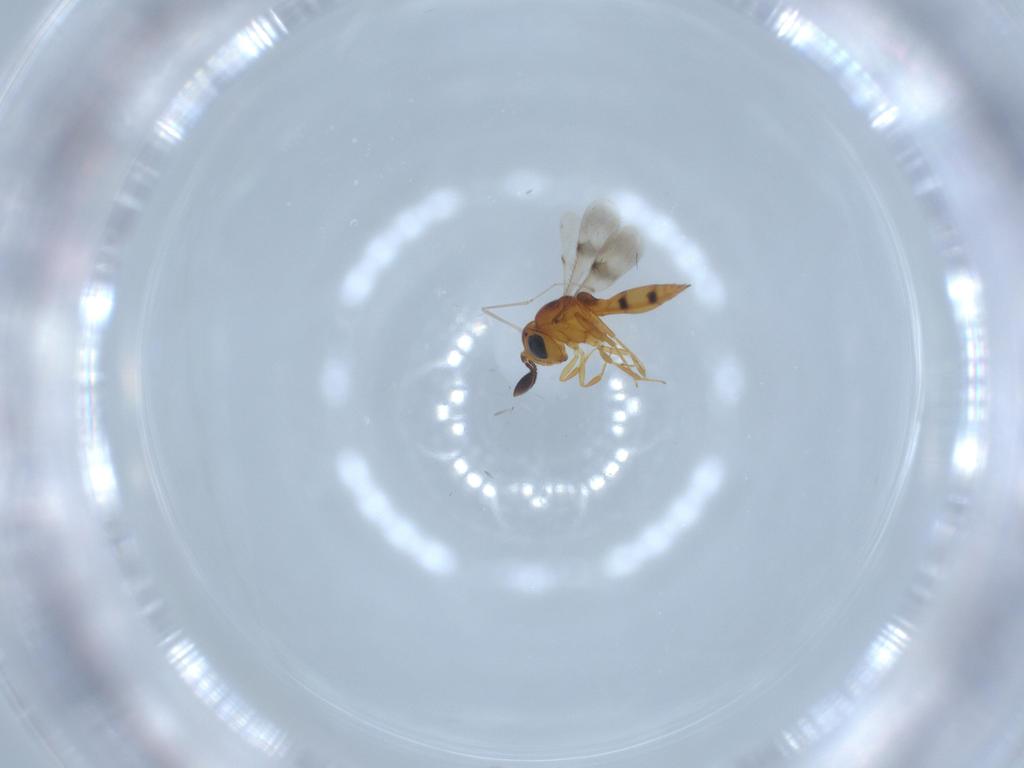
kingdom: Animalia
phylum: Arthropoda
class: Insecta
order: Hymenoptera
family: Scelionidae
